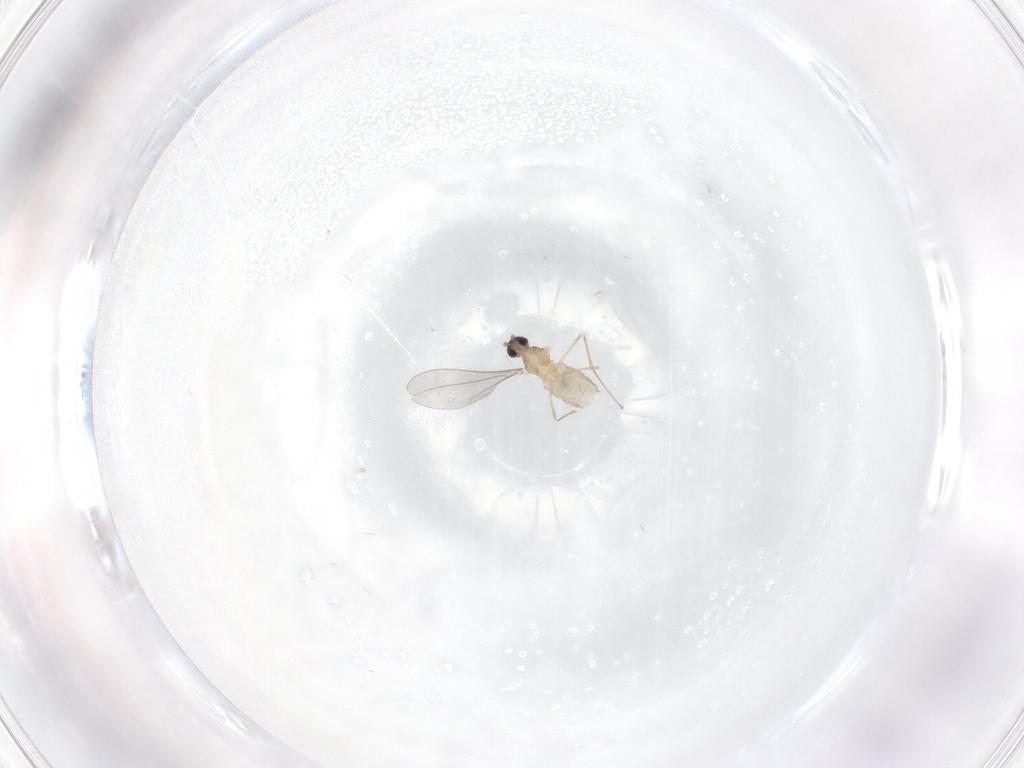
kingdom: Animalia
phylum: Arthropoda
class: Insecta
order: Diptera
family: Cecidomyiidae
